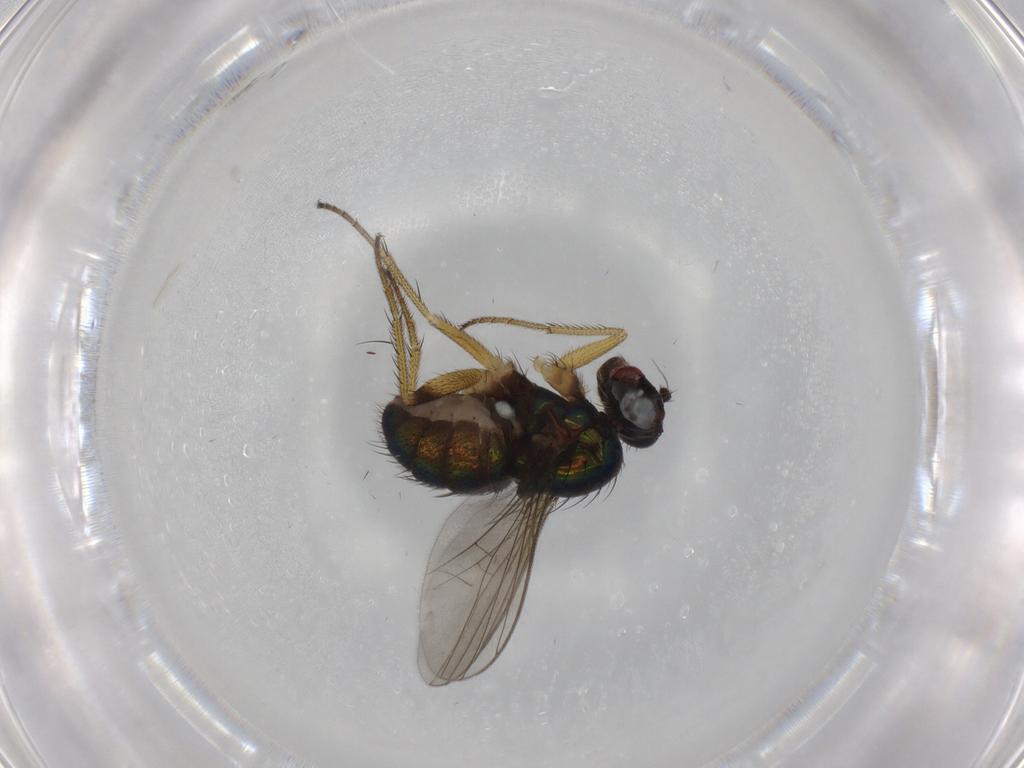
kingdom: Animalia
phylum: Arthropoda
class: Insecta
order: Diptera
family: Dolichopodidae
